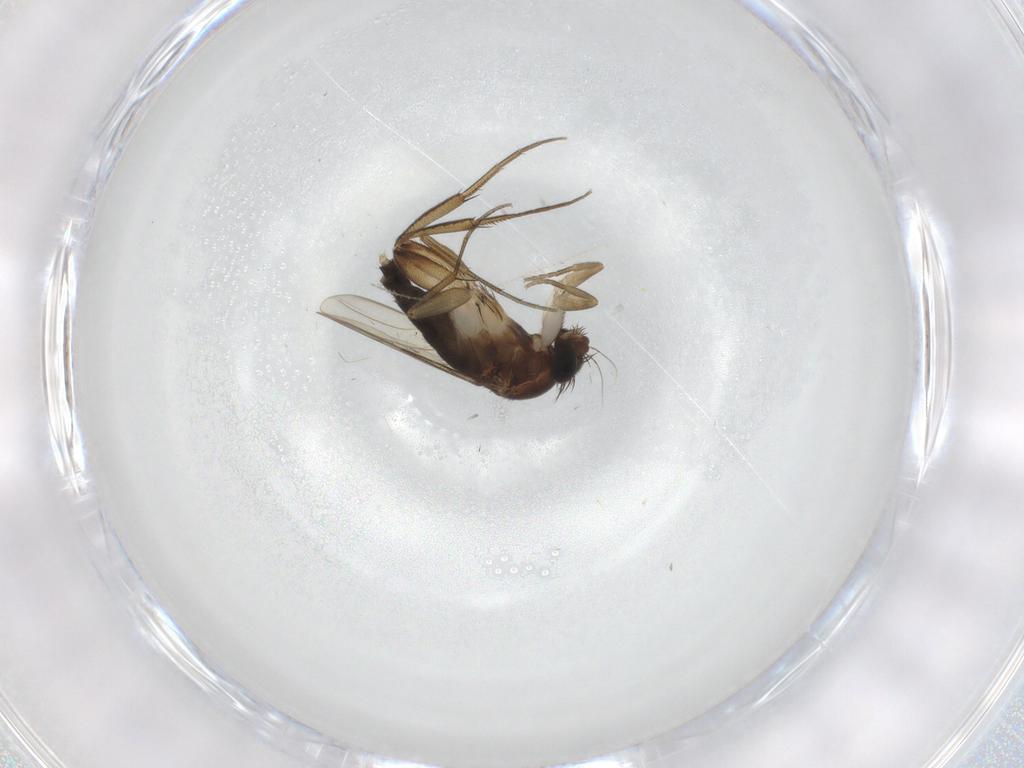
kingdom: Animalia
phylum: Arthropoda
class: Insecta
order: Diptera
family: Phoridae
